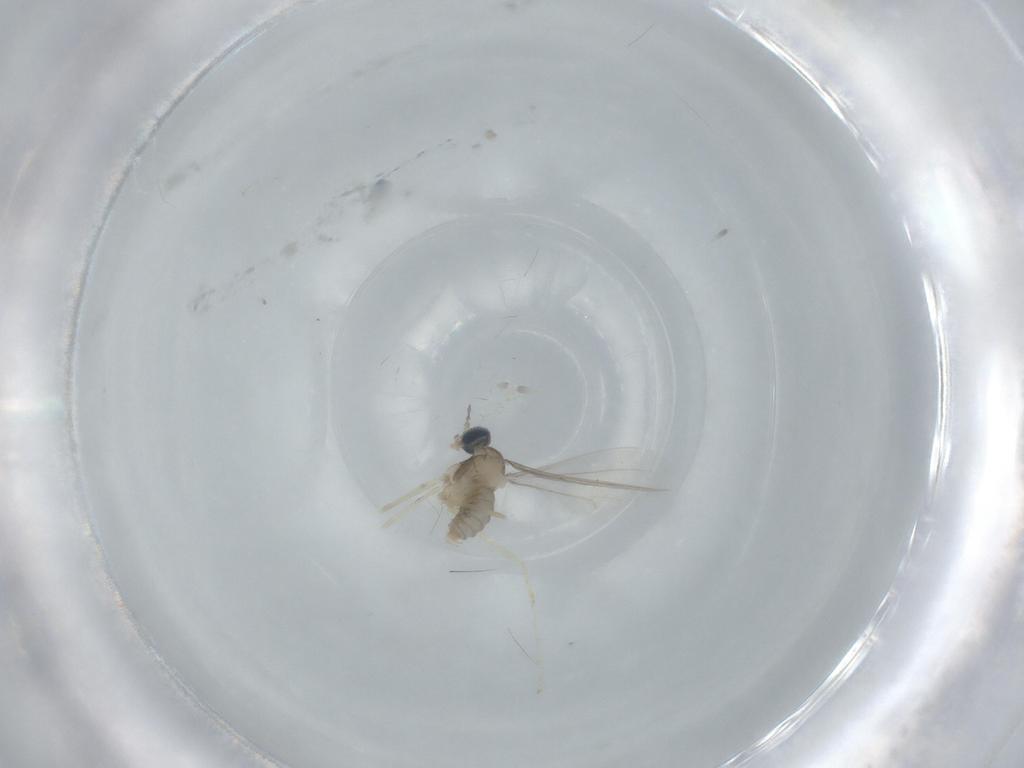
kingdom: Animalia
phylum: Arthropoda
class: Insecta
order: Diptera
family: Cecidomyiidae
